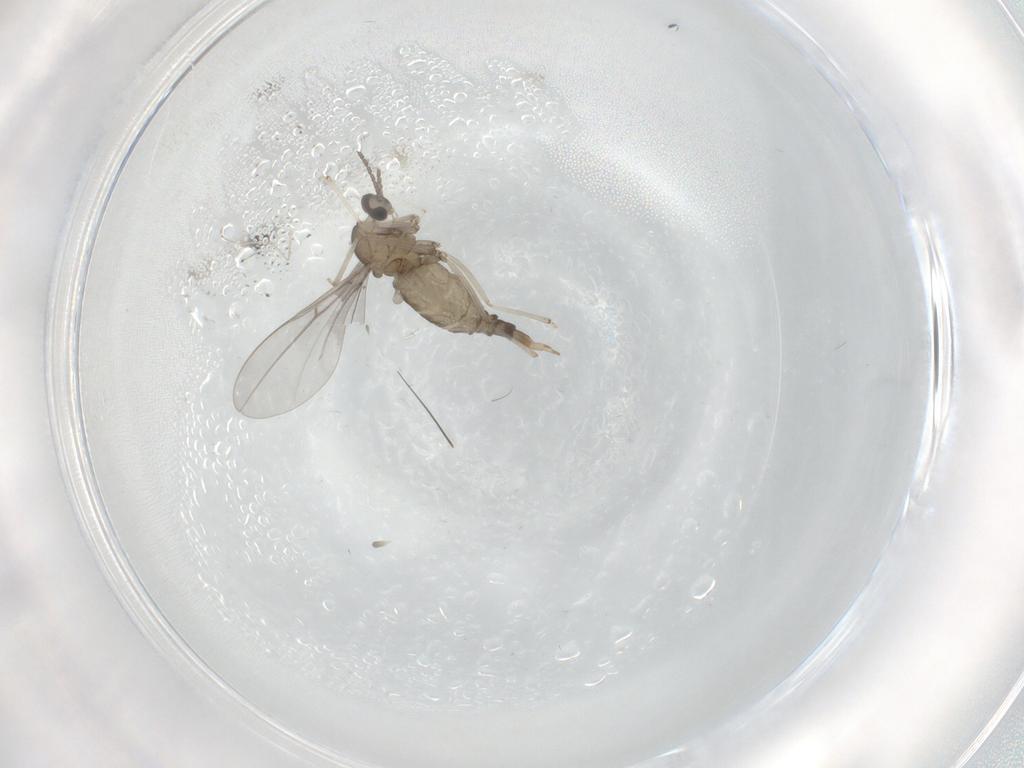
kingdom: Animalia
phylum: Arthropoda
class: Insecta
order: Diptera
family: Cecidomyiidae
